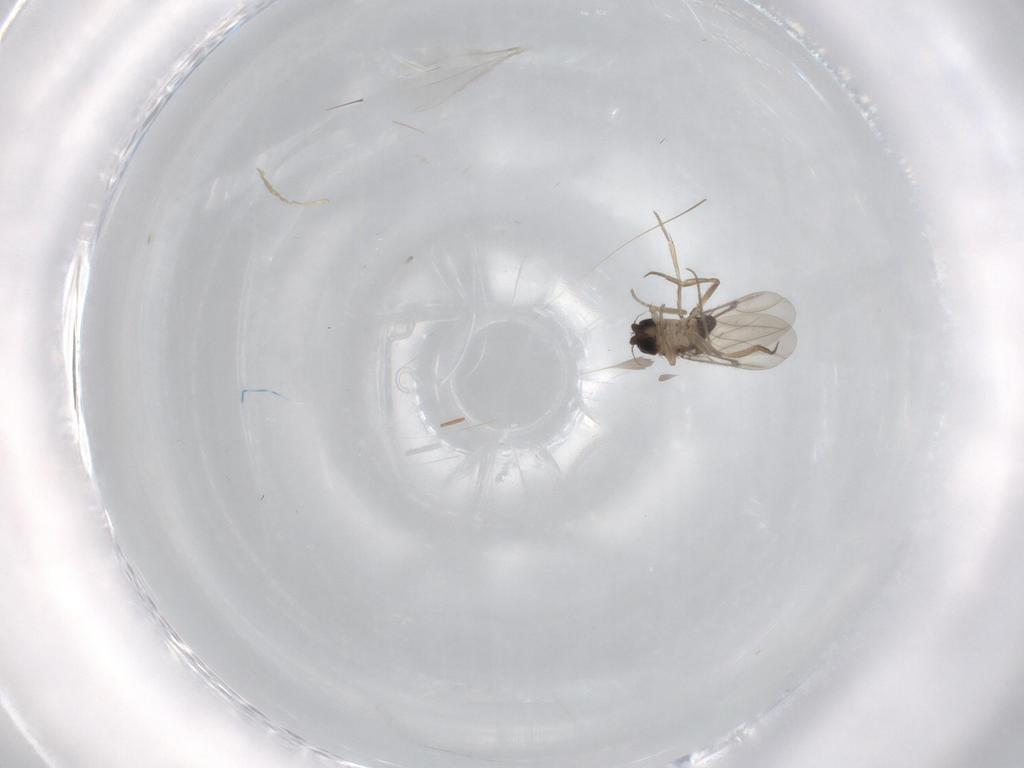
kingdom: Animalia
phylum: Arthropoda
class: Insecta
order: Diptera
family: Phoridae
